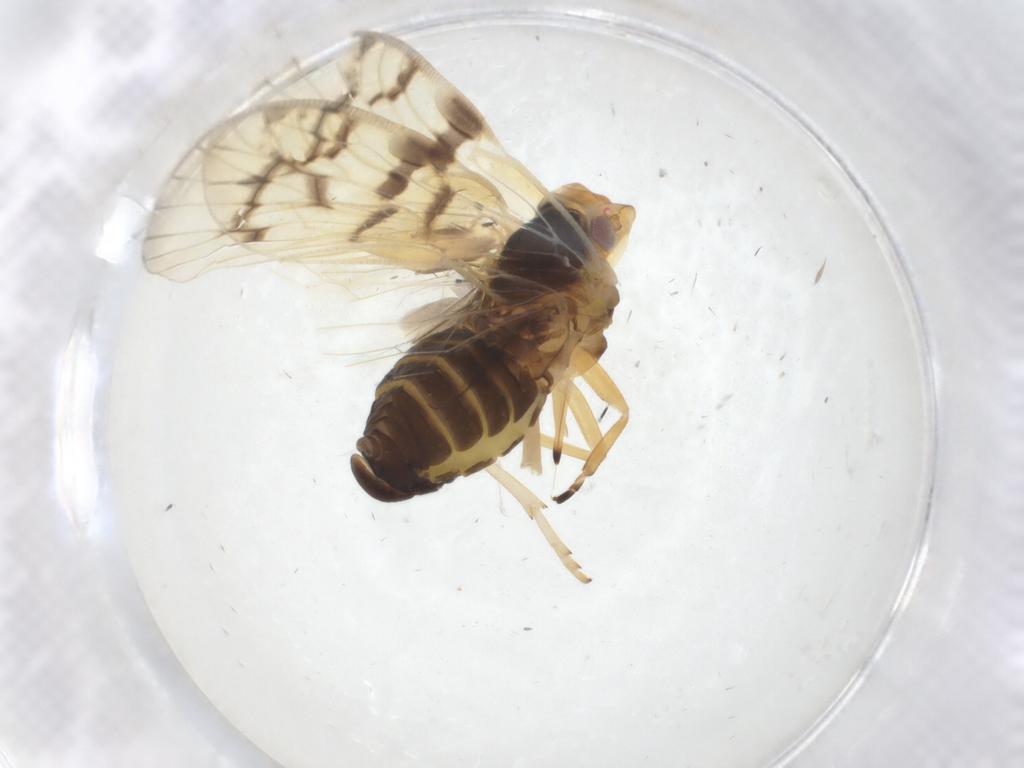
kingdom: Animalia
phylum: Arthropoda
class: Insecta
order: Hemiptera
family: Cixiidae
